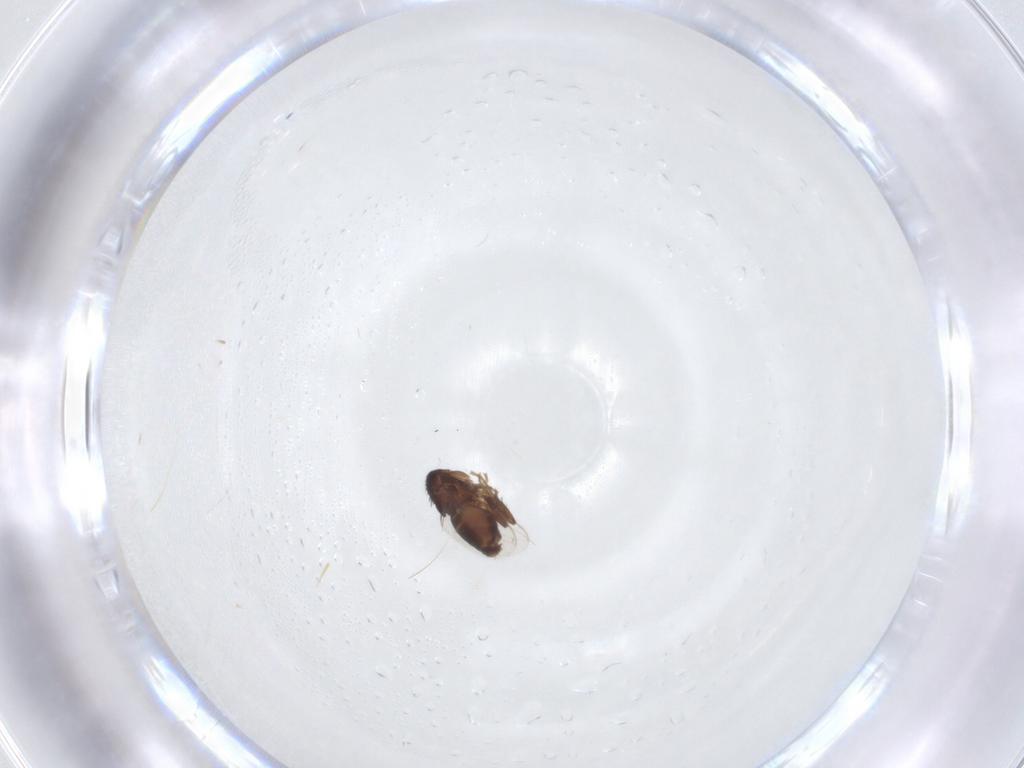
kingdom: Animalia
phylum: Arthropoda
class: Insecta
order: Diptera
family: Sphaeroceridae
